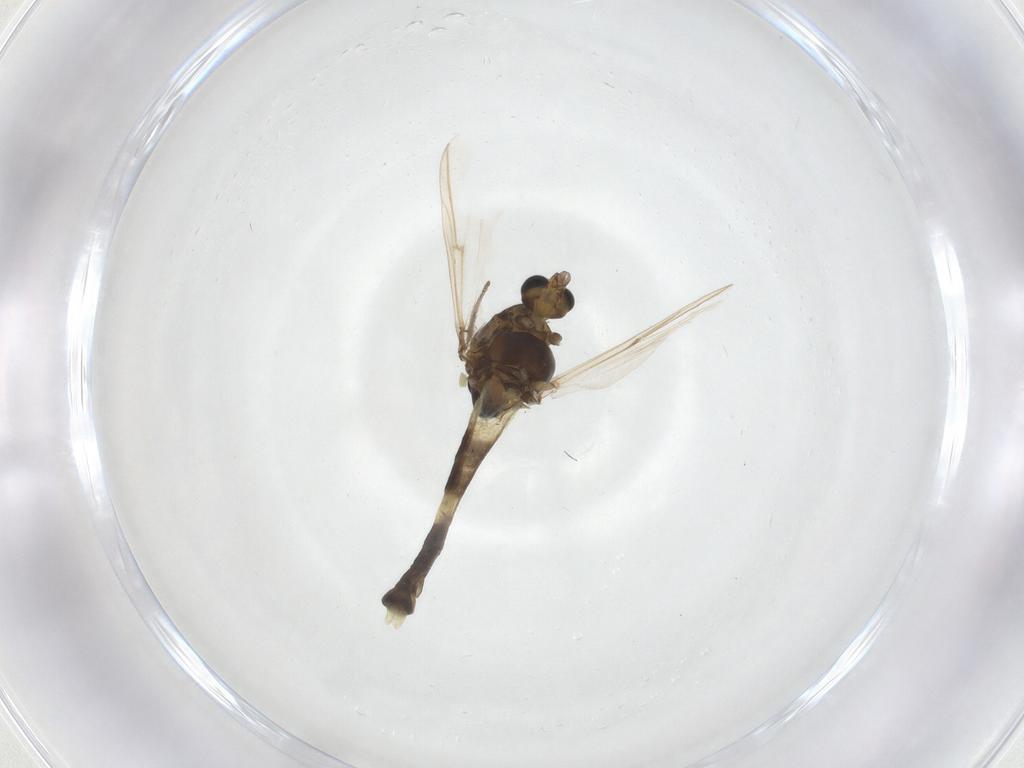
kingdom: Animalia
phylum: Arthropoda
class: Insecta
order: Diptera
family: Chironomidae
